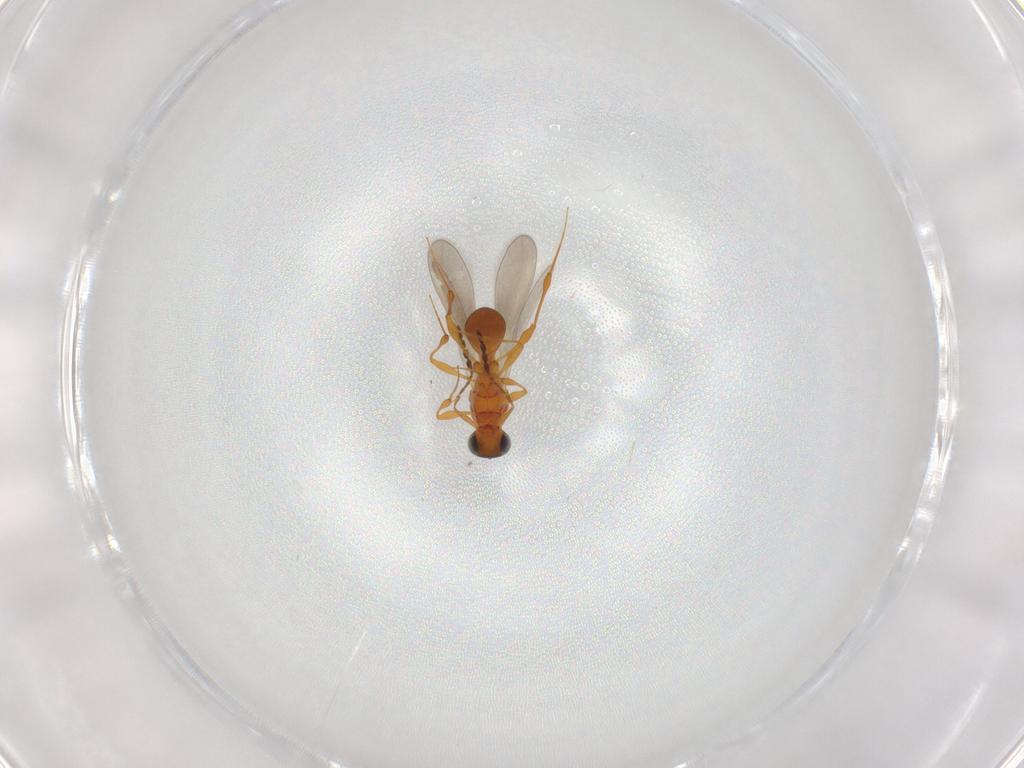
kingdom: Animalia
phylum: Arthropoda
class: Insecta
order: Hymenoptera
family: Platygastridae
